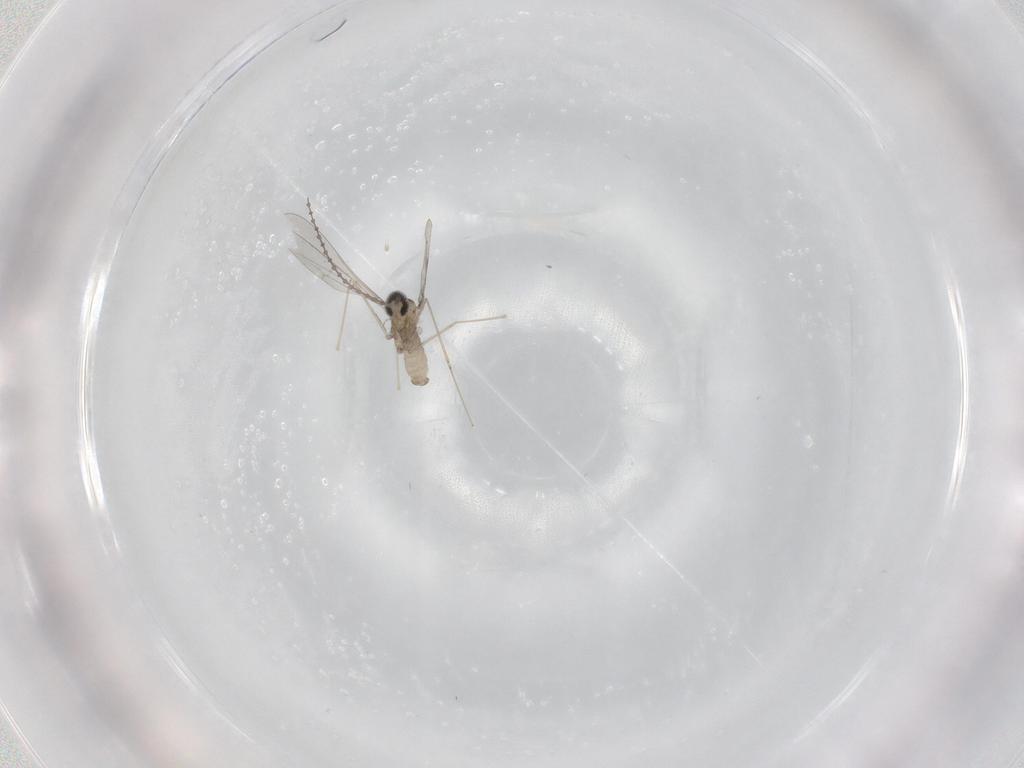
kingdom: Animalia
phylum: Arthropoda
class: Insecta
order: Diptera
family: Cecidomyiidae
